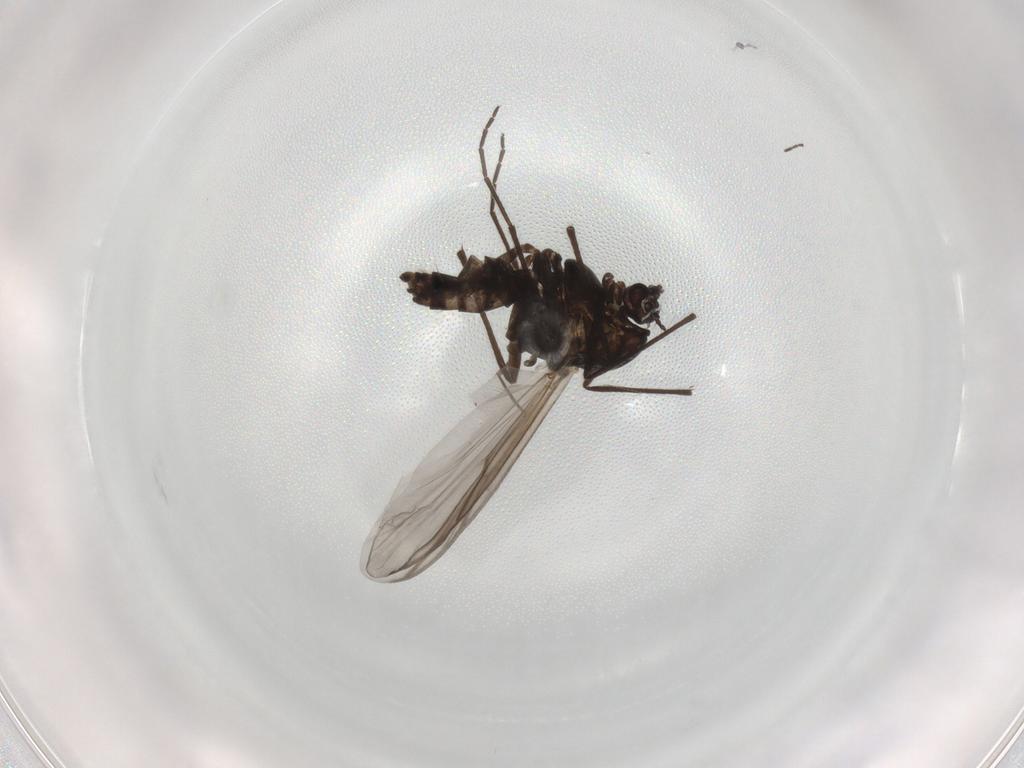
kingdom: Animalia
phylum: Arthropoda
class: Insecta
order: Diptera
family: Chironomidae
